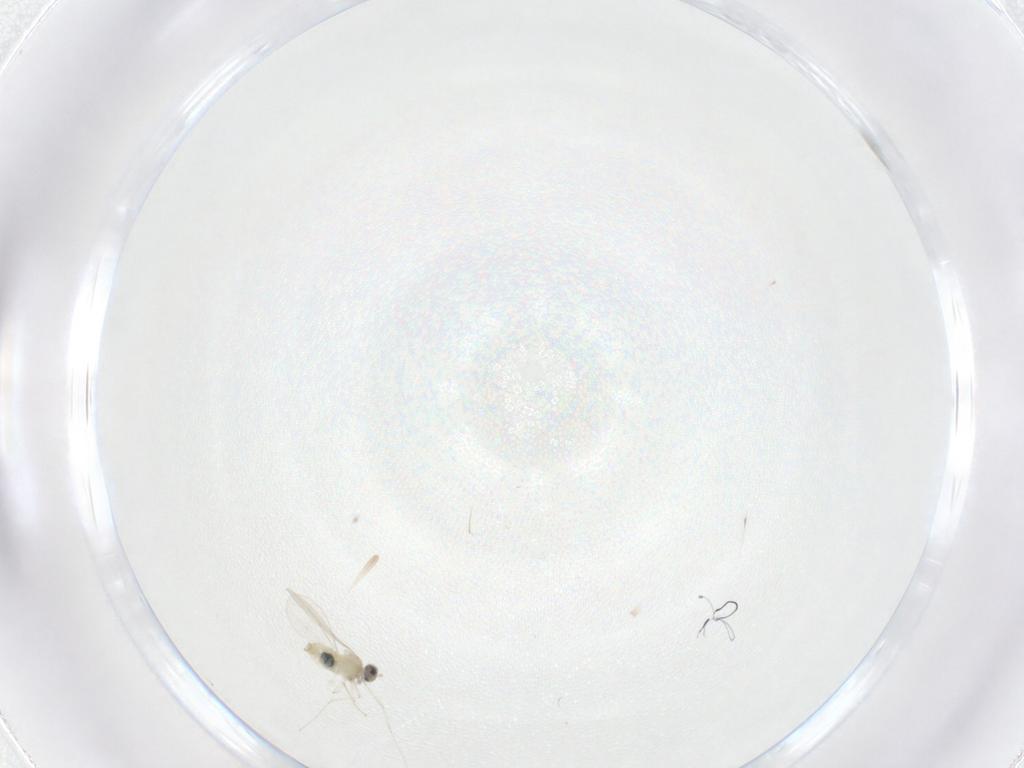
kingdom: Animalia
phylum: Arthropoda
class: Insecta
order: Diptera
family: Cecidomyiidae
